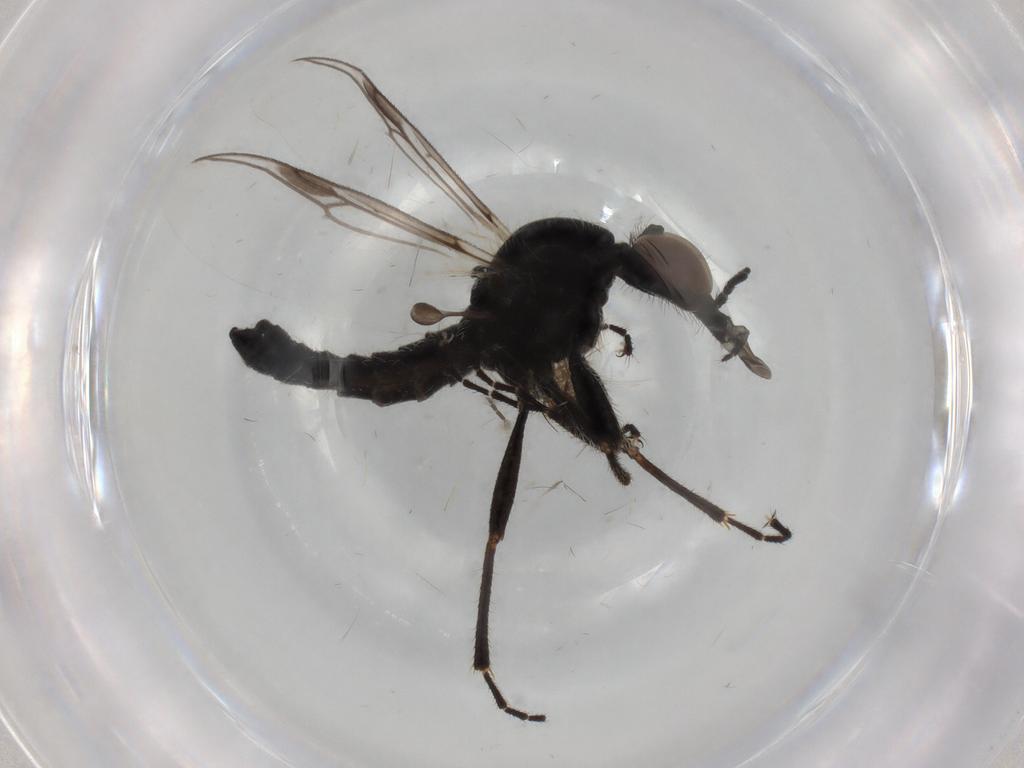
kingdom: Animalia
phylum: Arthropoda
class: Insecta
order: Diptera
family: Bibionidae
